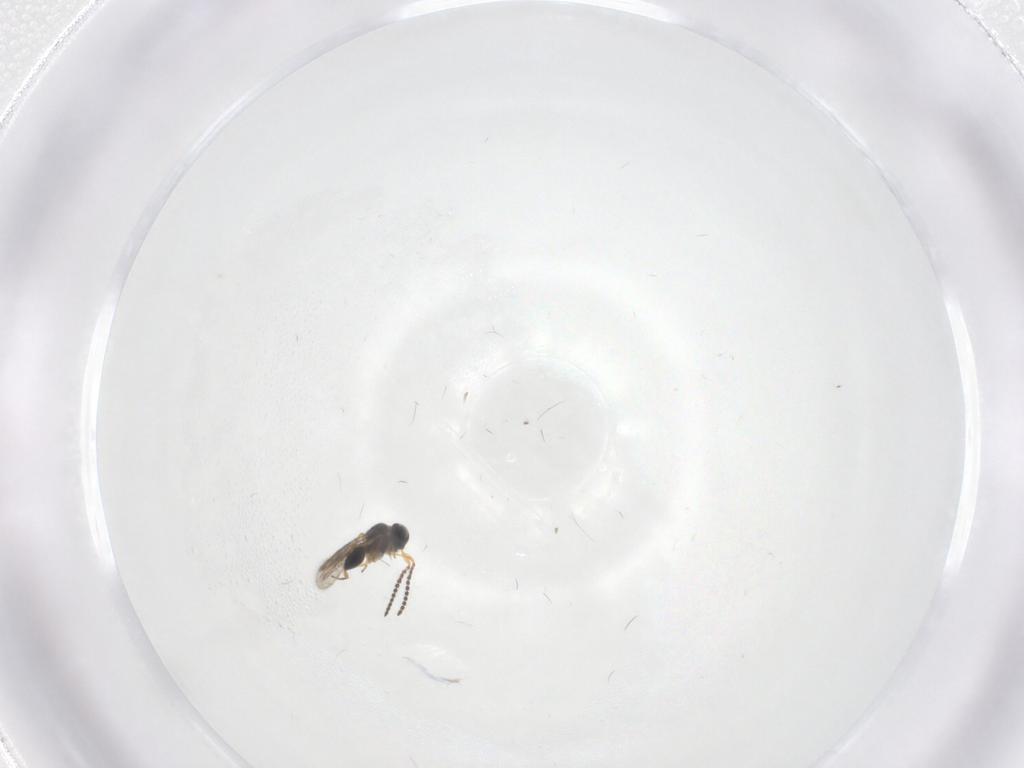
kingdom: Animalia
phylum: Arthropoda
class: Insecta
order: Hymenoptera
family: Scelionidae
